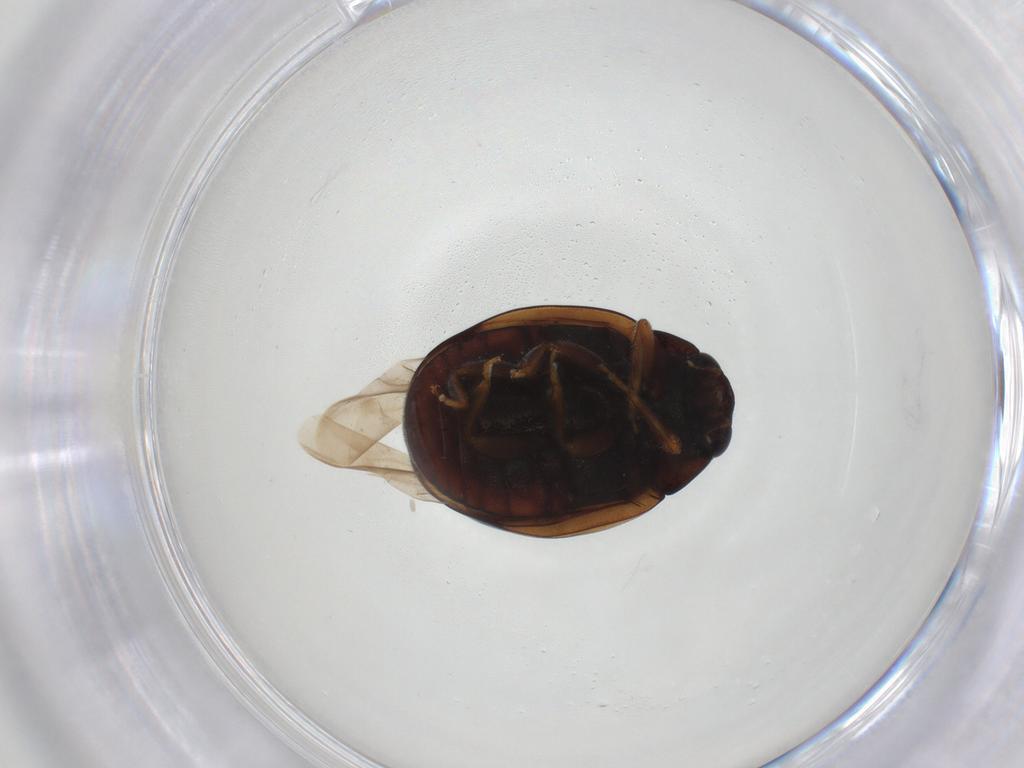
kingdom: Animalia
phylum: Arthropoda
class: Insecta
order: Coleoptera
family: Coccinellidae
